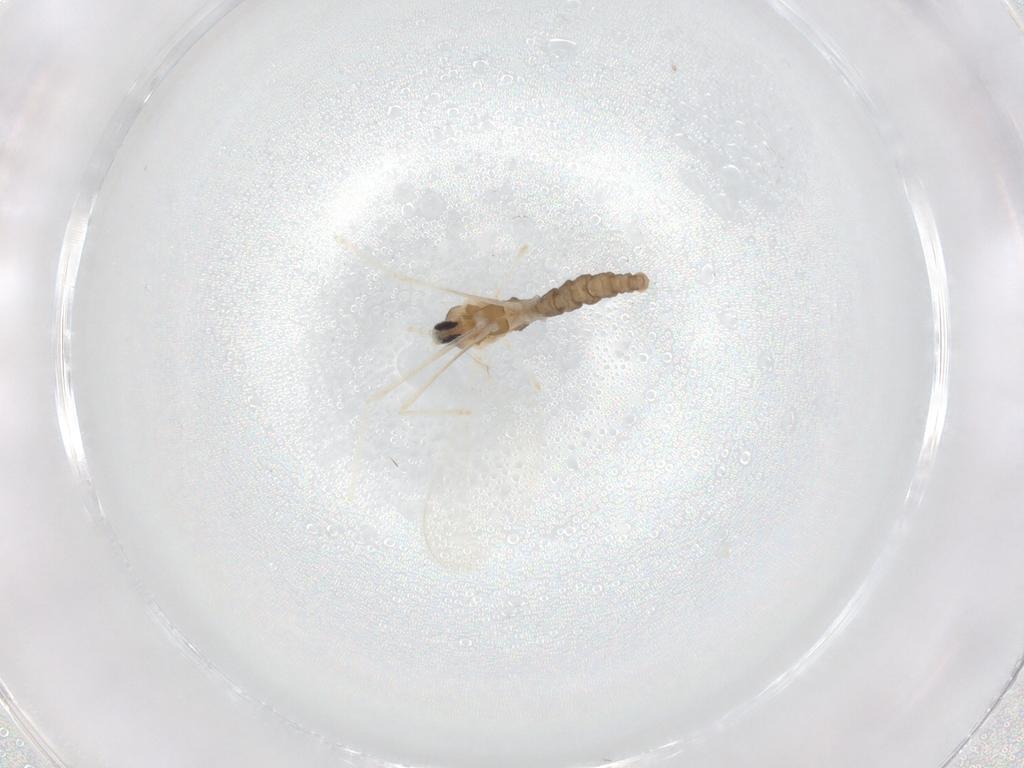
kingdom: Animalia
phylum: Arthropoda
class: Insecta
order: Diptera
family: Cecidomyiidae
